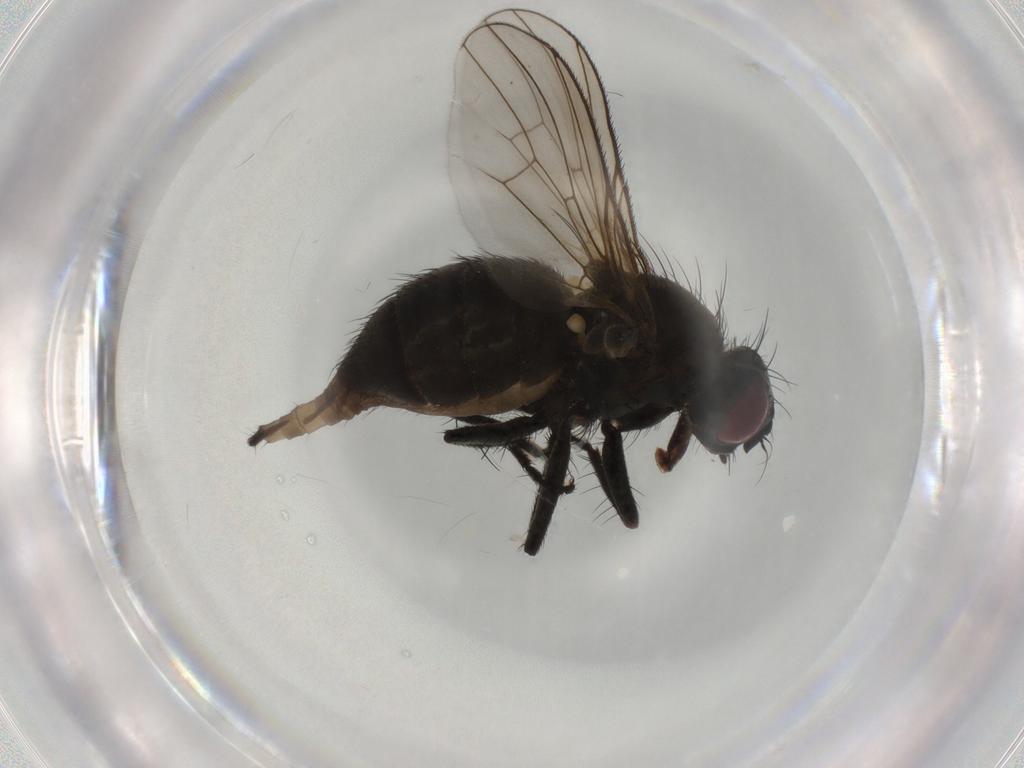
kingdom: Animalia
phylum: Arthropoda
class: Insecta
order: Diptera
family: Muscidae
